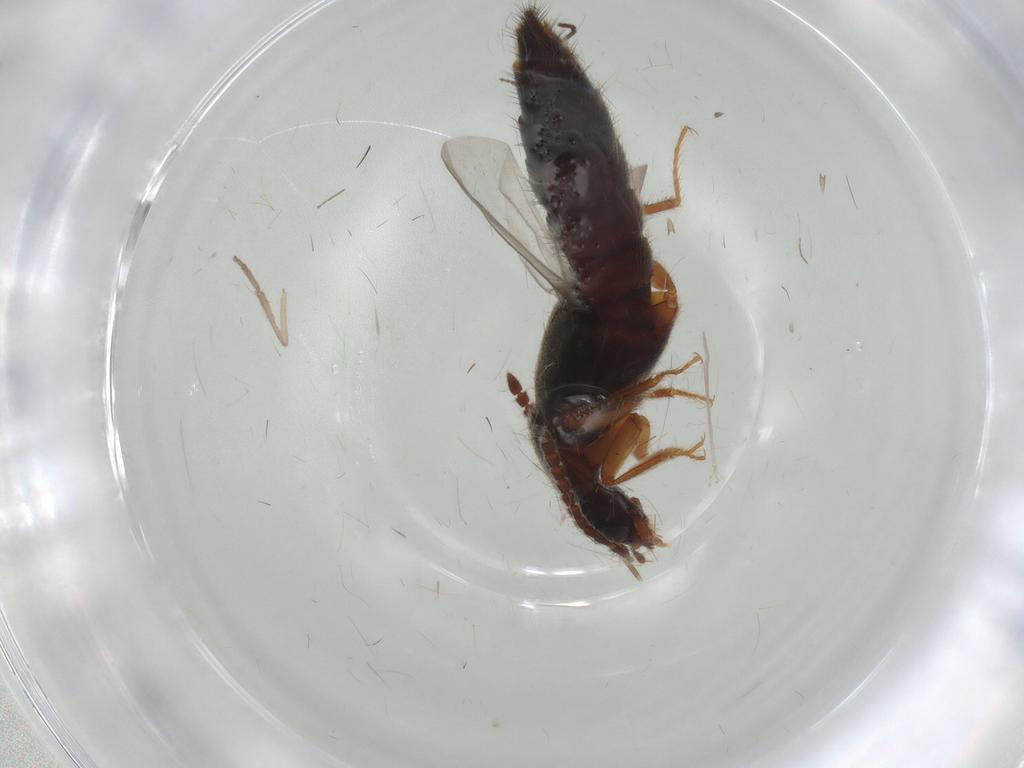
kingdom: Animalia
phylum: Arthropoda
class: Insecta
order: Coleoptera
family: Staphylinidae
